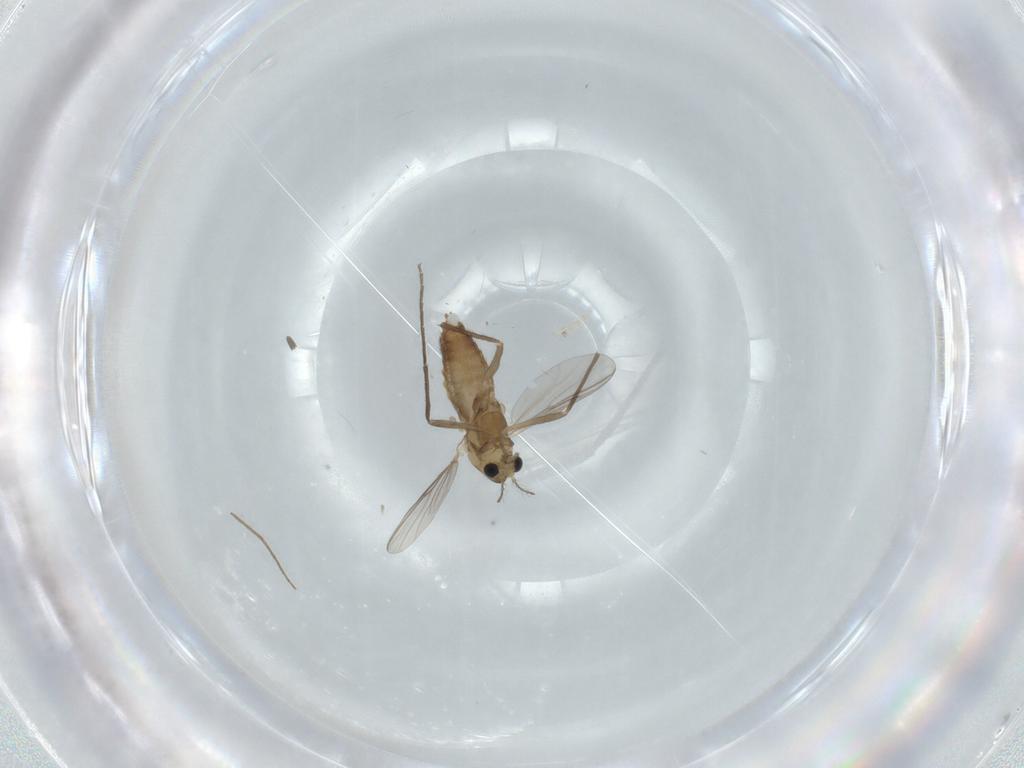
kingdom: Animalia
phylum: Arthropoda
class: Insecta
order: Diptera
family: Chironomidae
